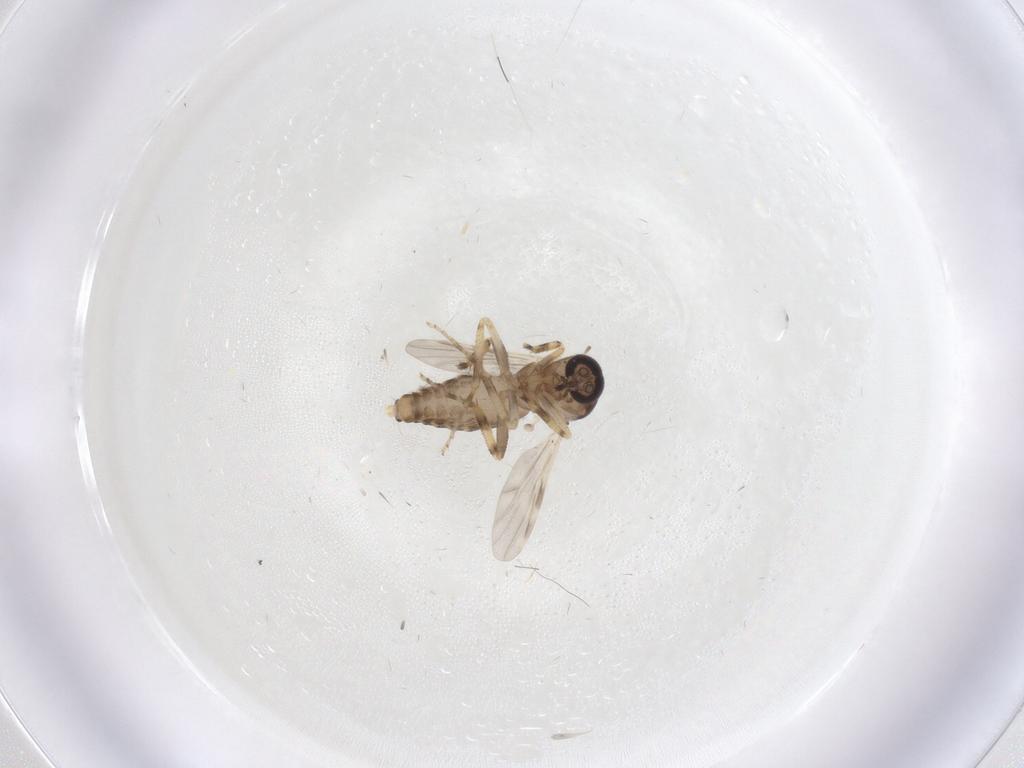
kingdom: Animalia
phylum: Arthropoda
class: Insecta
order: Diptera
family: Ceratopogonidae
